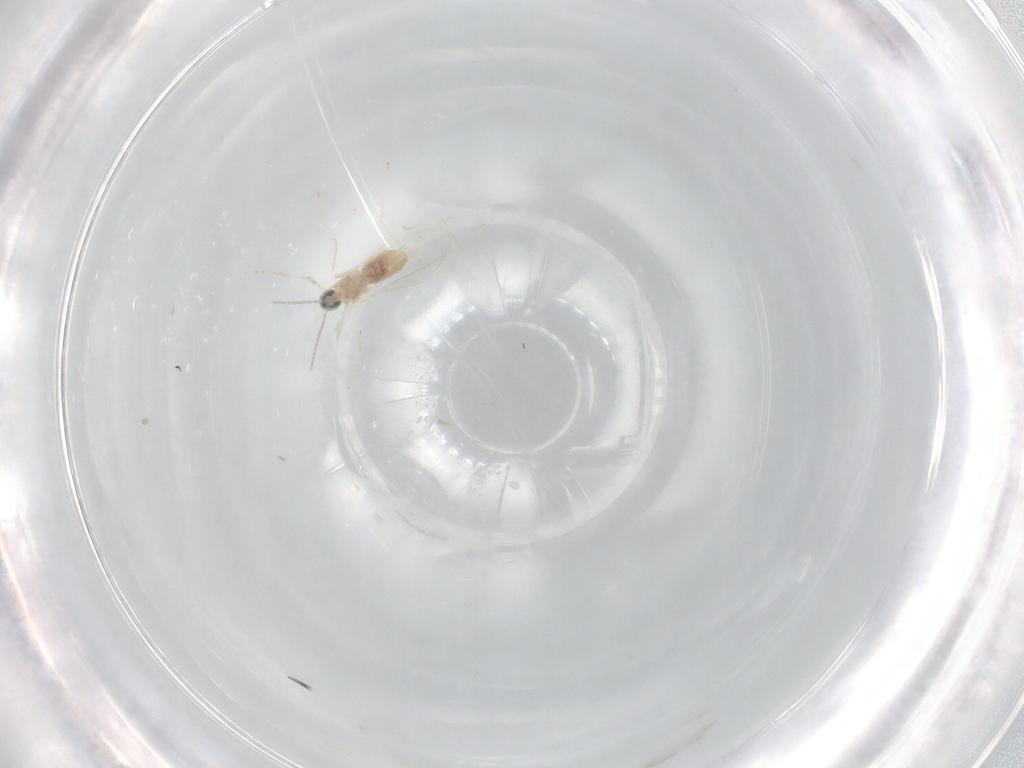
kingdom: Animalia
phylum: Arthropoda
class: Insecta
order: Diptera
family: Cecidomyiidae
